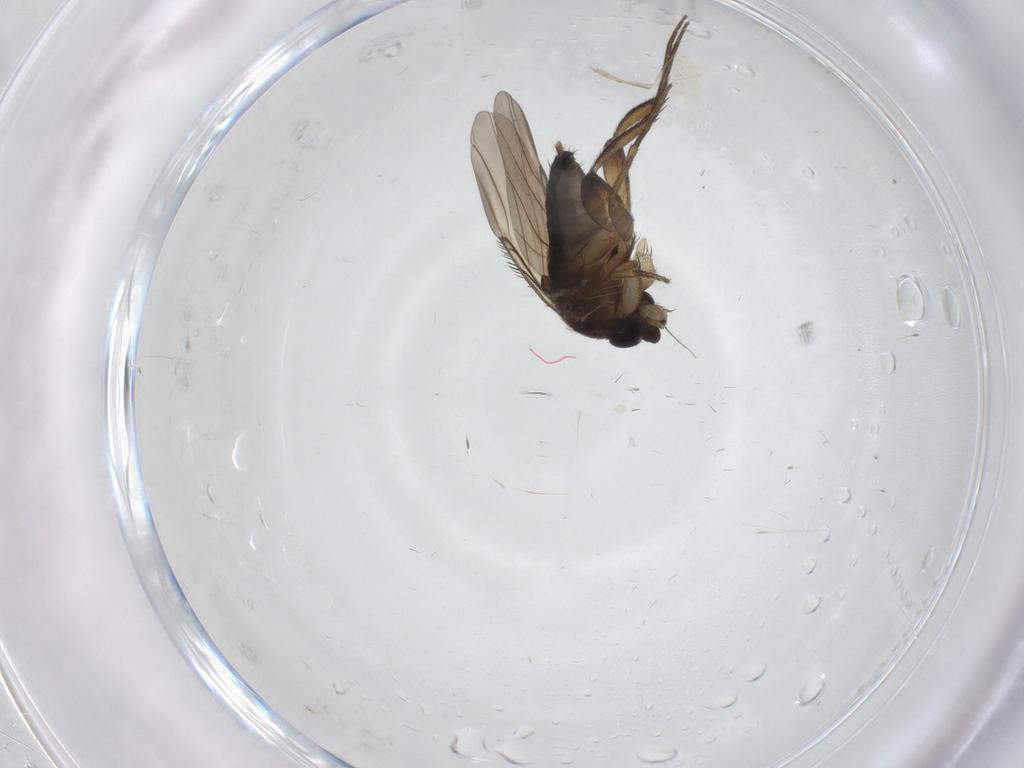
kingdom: Animalia
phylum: Arthropoda
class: Insecta
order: Diptera
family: Phoridae
